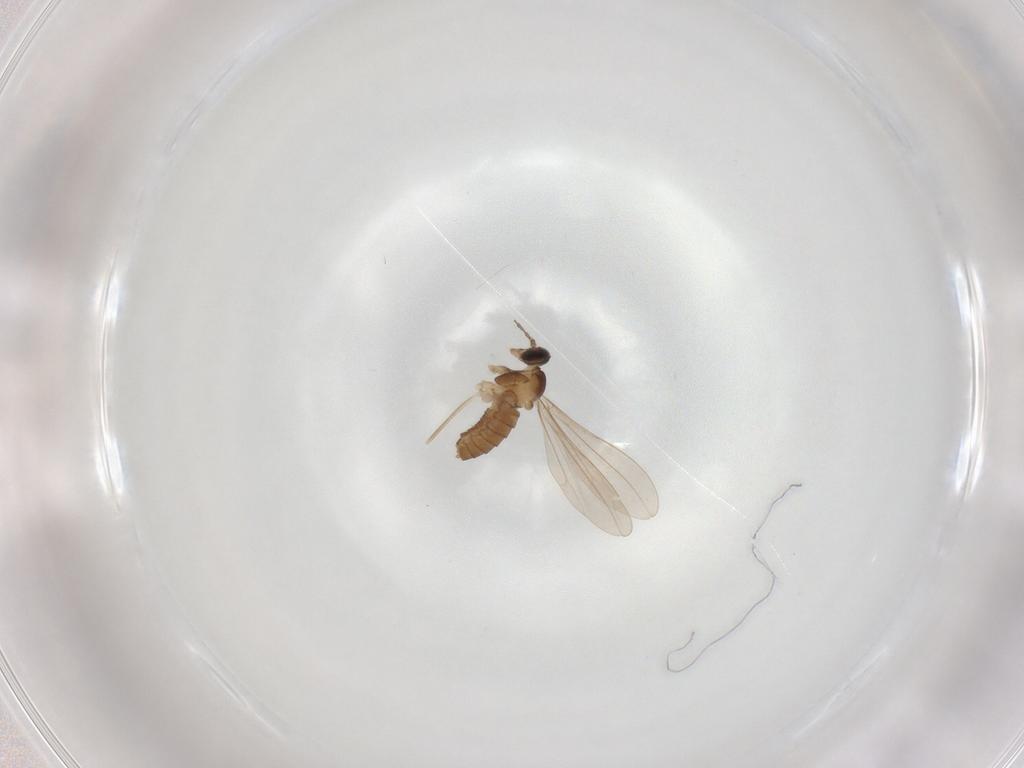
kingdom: Animalia
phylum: Arthropoda
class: Insecta
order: Diptera
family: Cecidomyiidae
